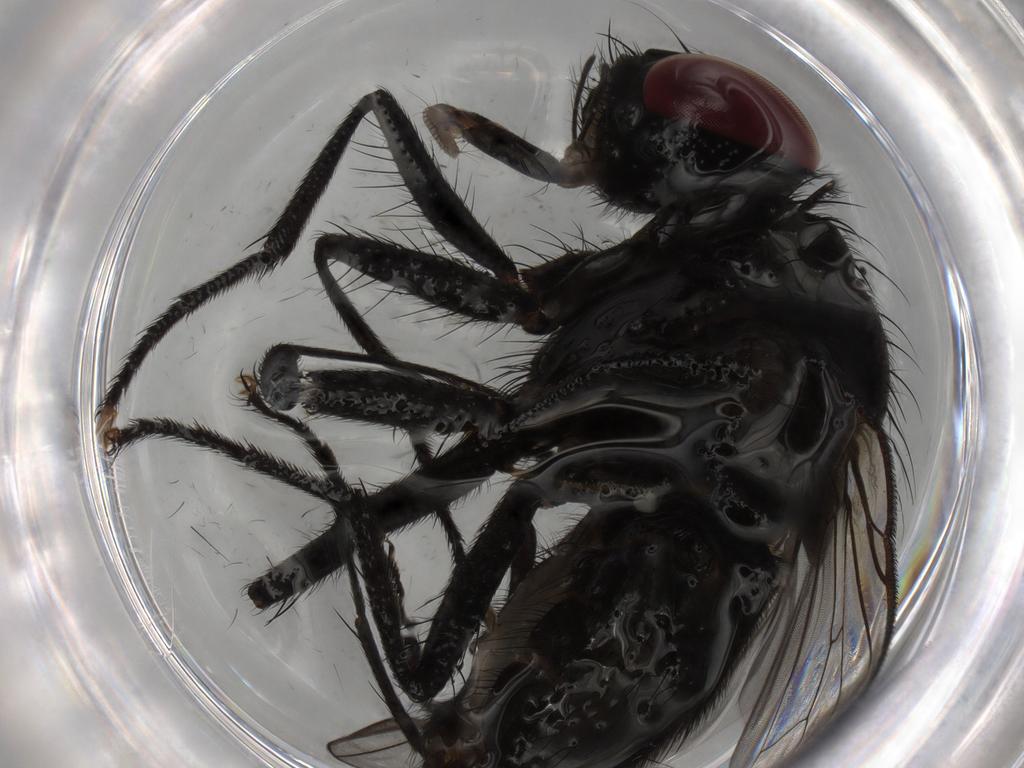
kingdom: Animalia
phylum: Arthropoda
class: Insecta
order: Diptera
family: Muscidae
